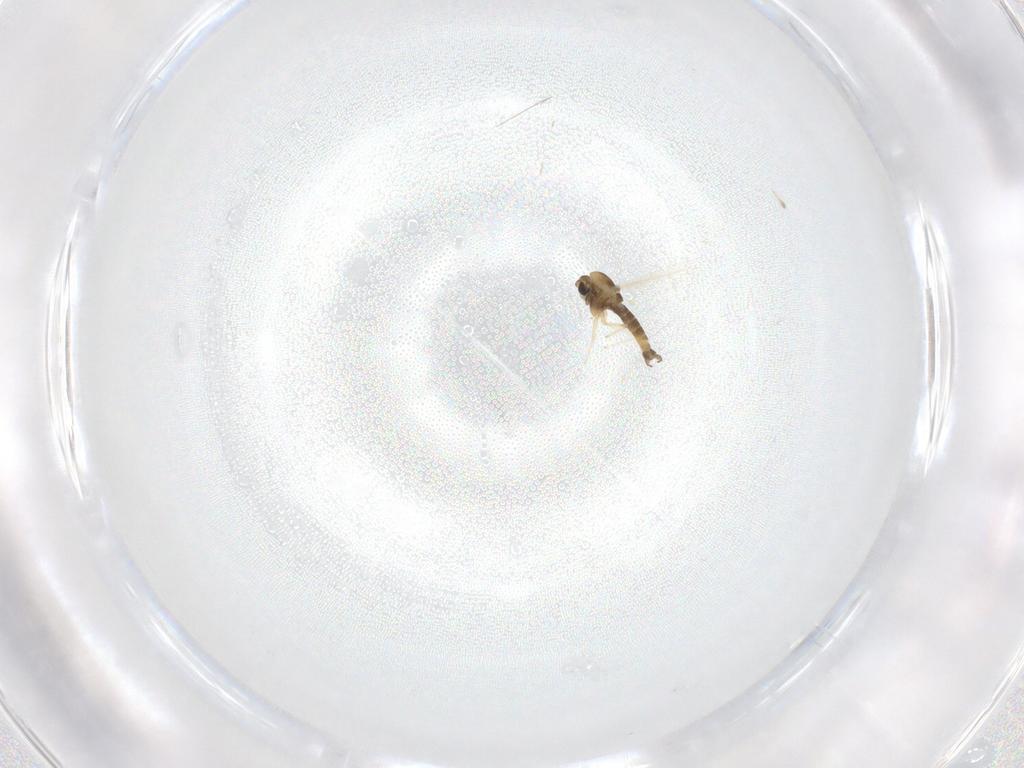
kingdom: Animalia
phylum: Arthropoda
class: Insecta
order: Diptera
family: Chironomidae
